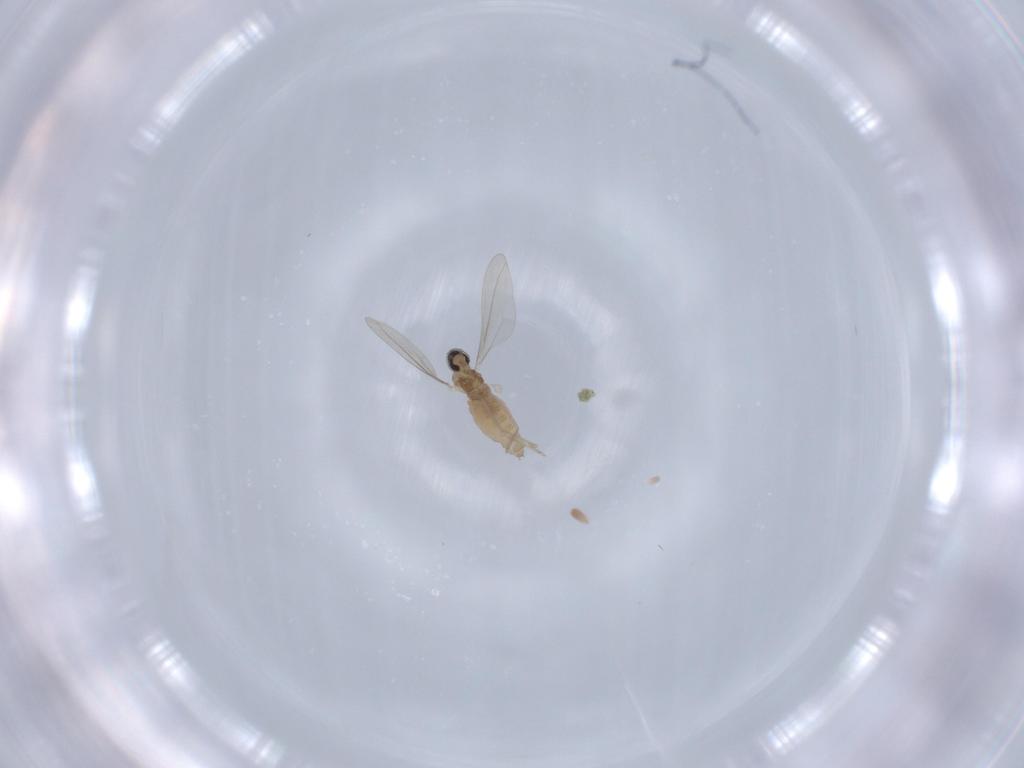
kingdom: Animalia
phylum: Arthropoda
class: Insecta
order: Diptera
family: Cecidomyiidae
